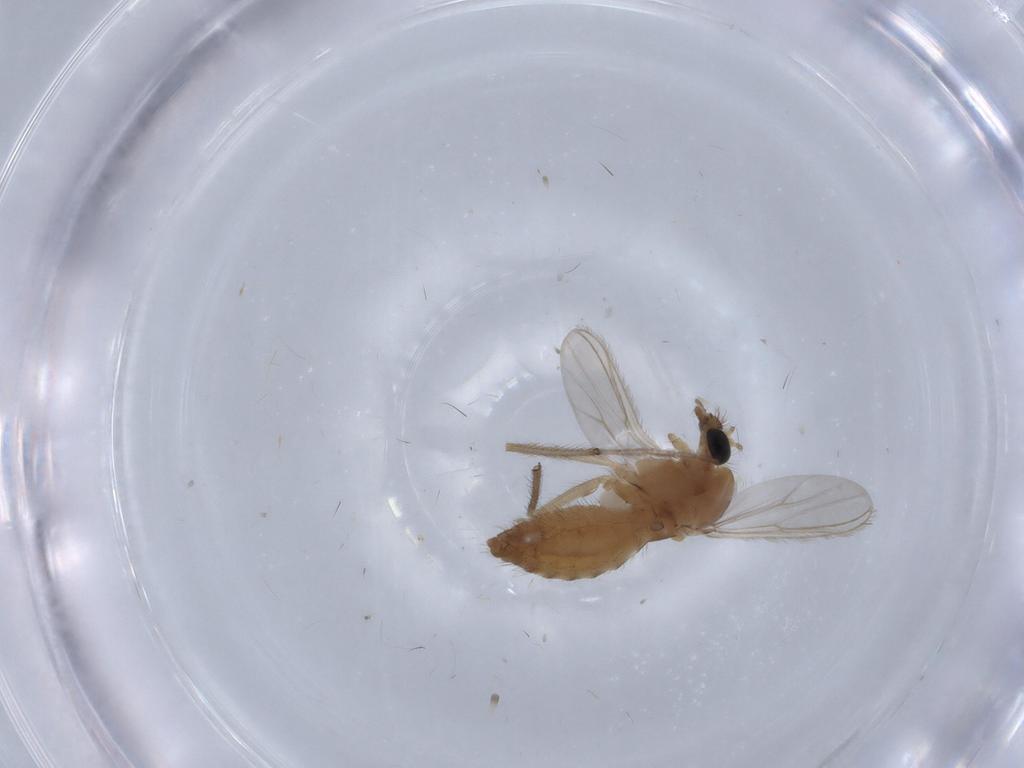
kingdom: Animalia
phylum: Arthropoda
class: Insecta
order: Diptera
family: Chironomidae
